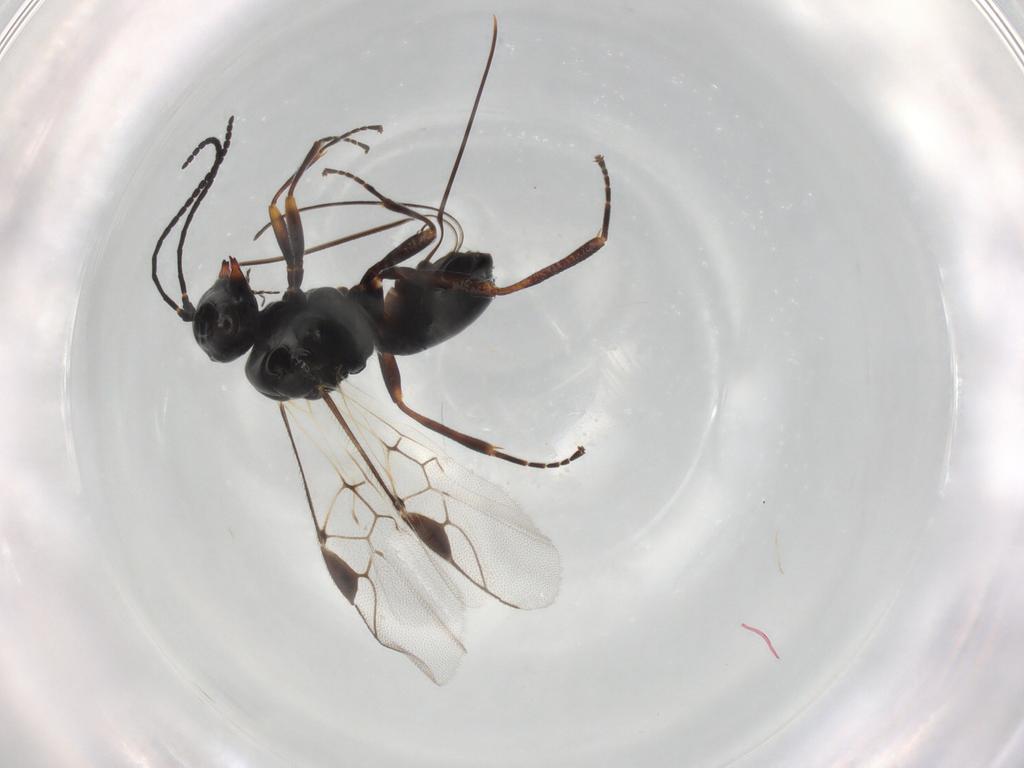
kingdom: Animalia
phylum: Arthropoda
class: Insecta
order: Hymenoptera
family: Braconidae
